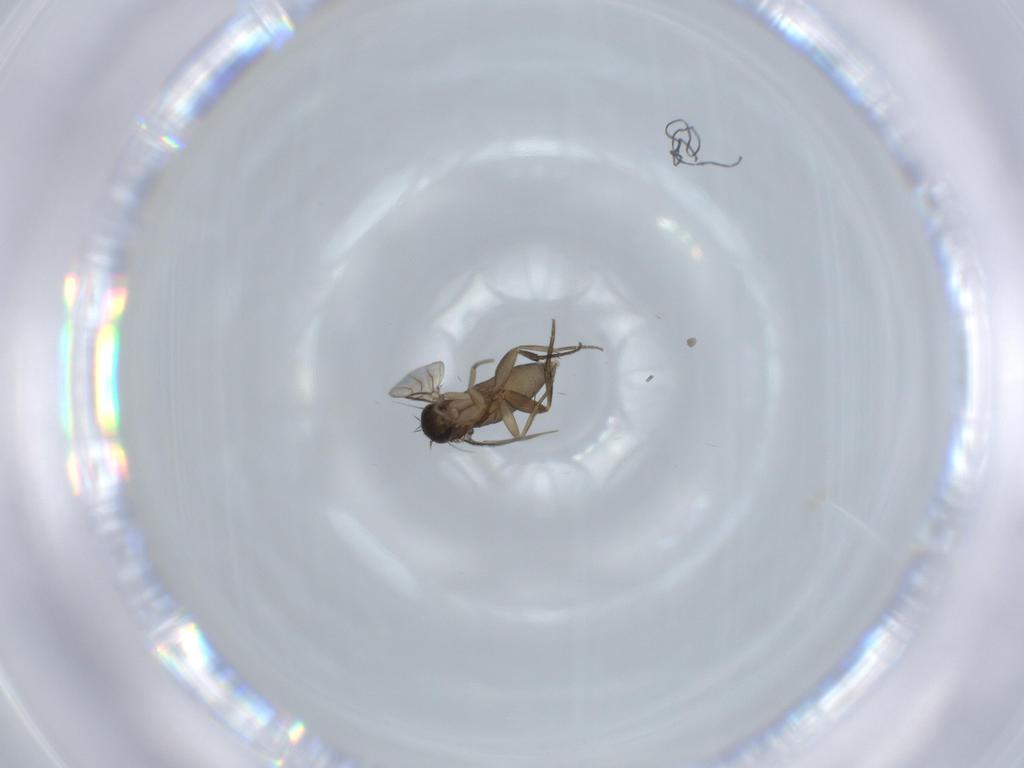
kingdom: Animalia
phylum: Arthropoda
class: Insecta
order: Diptera
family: Phoridae
